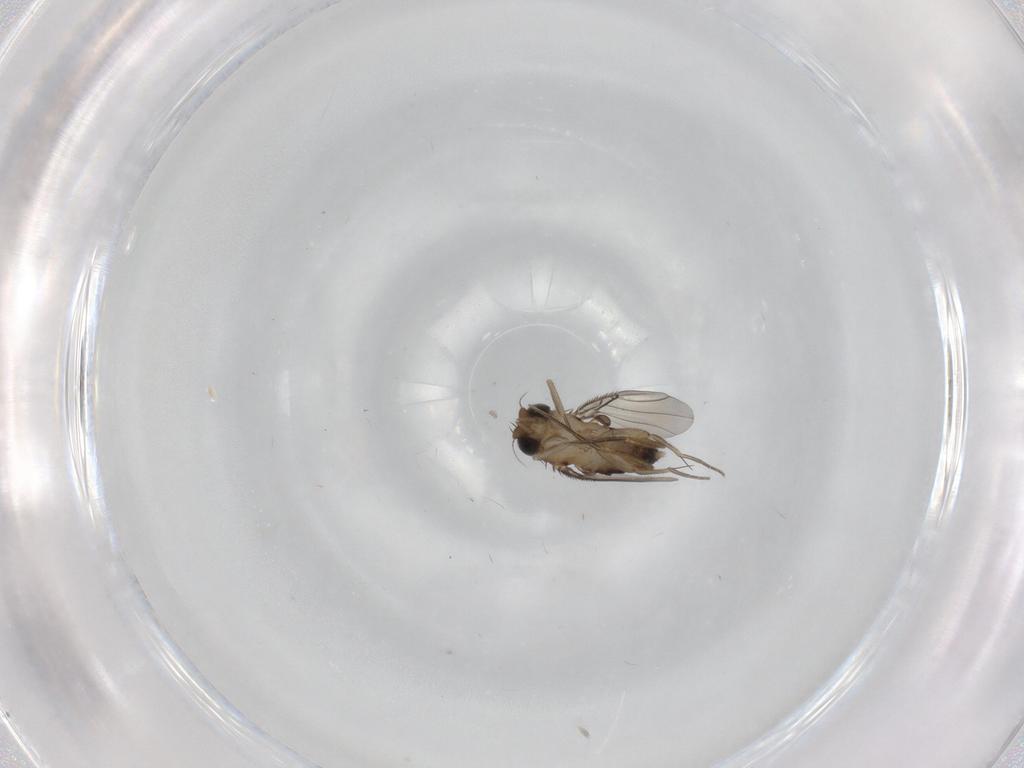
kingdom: Animalia
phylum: Arthropoda
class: Insecta
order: Diptera
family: Phoridae
